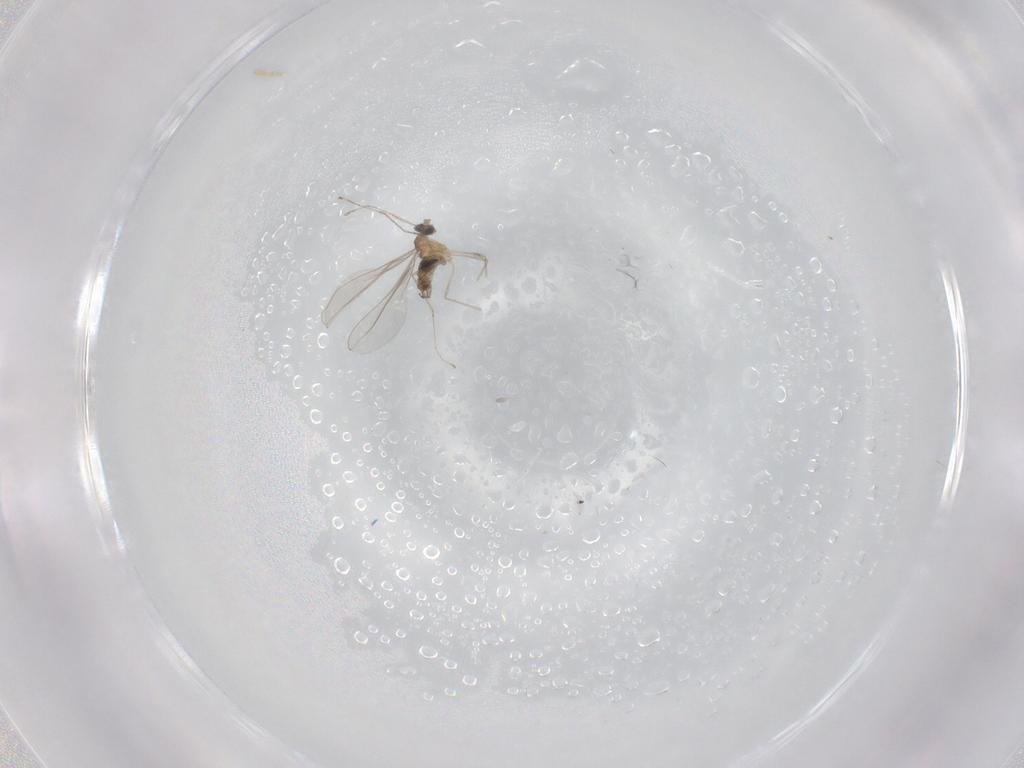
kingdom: Animalia
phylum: Arthropoda
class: Insecta
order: Diptera
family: Cecidomyiidae
